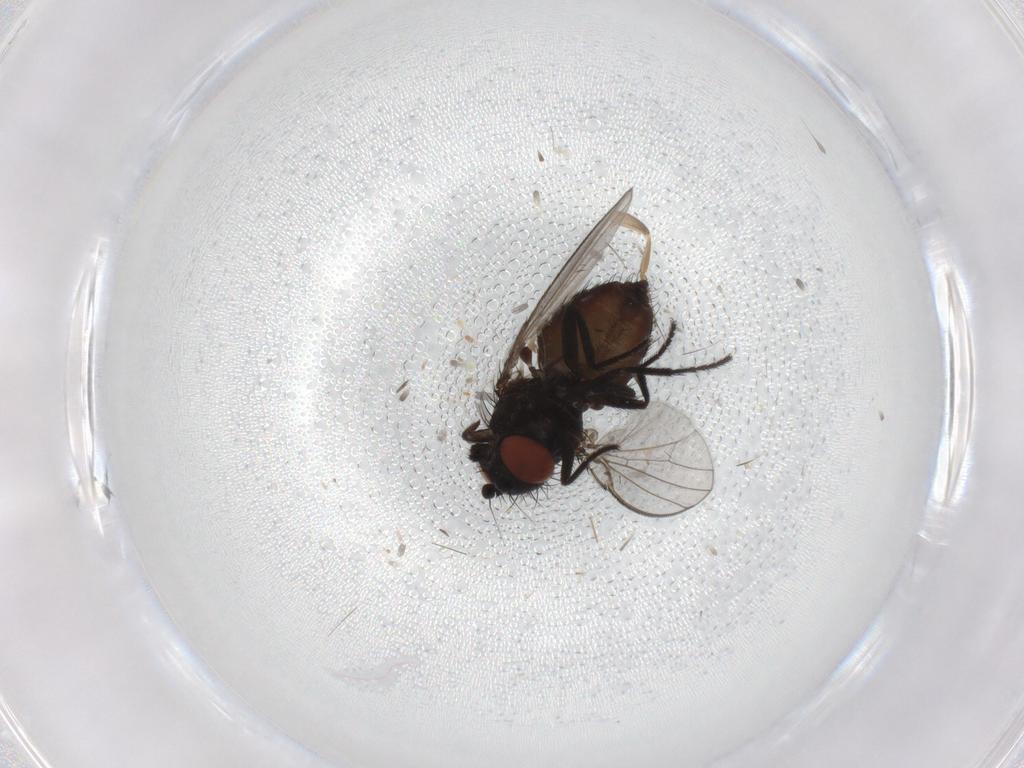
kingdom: Animalia
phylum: Arthropoda
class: Insecta
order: Diptera
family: Milichiidae
